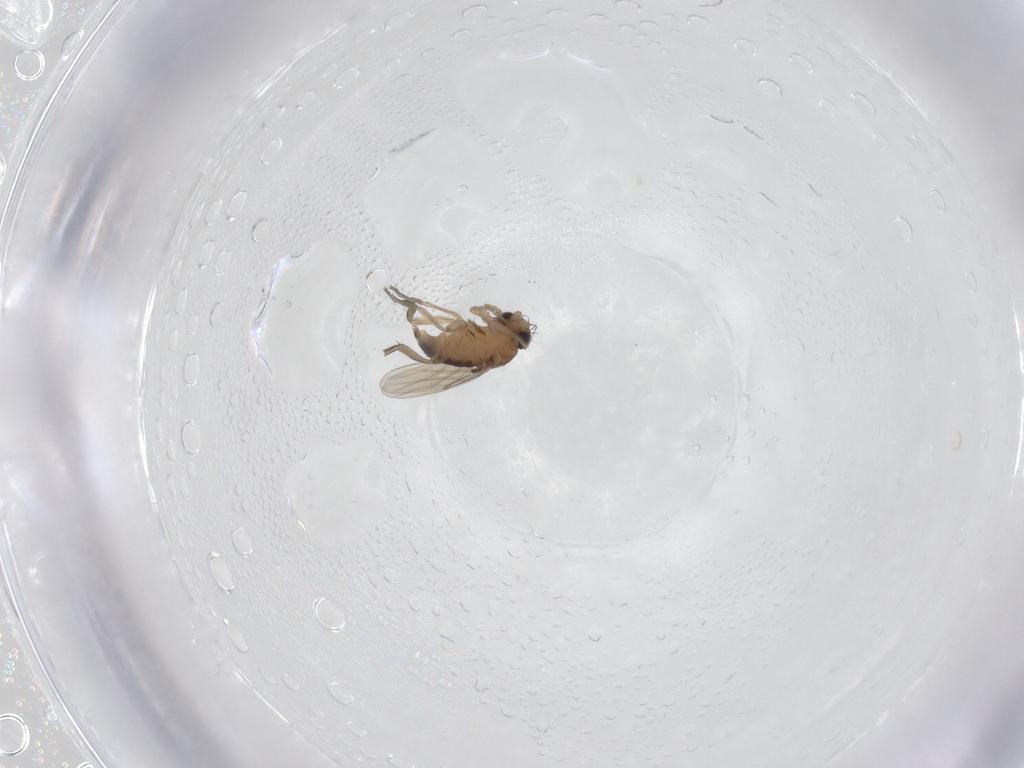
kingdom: Animalia
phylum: Arthropoda
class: Insecta
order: Diptera
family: Phoridae
